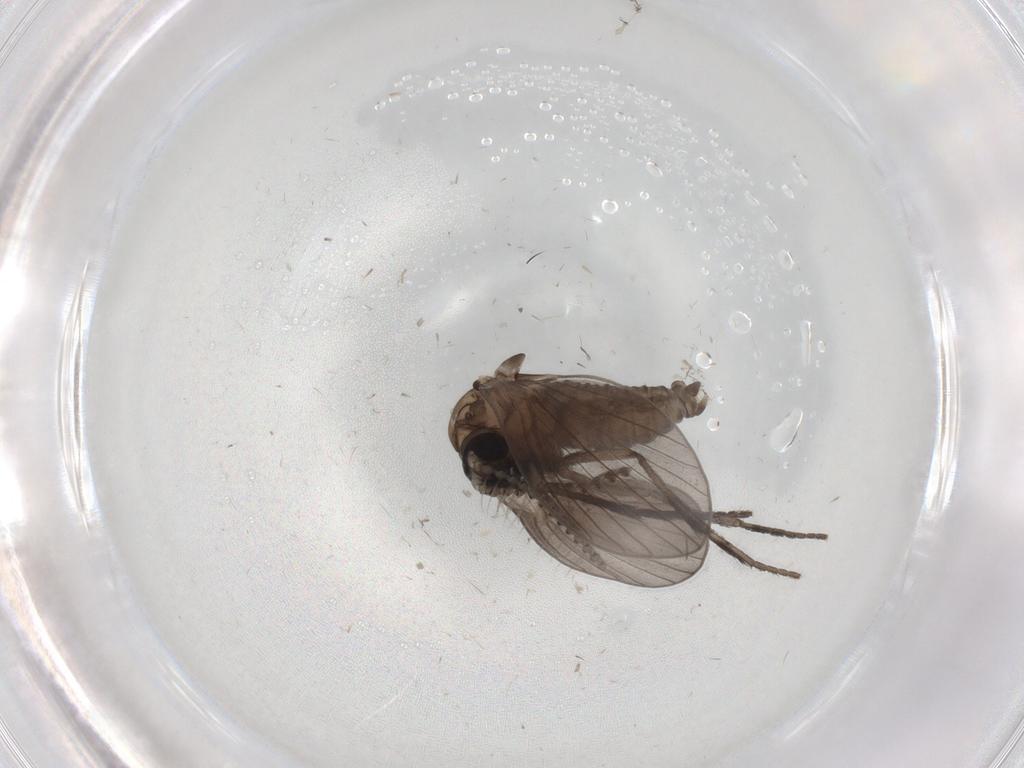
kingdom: Animalia
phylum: Arthropoda
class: Insecta
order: Diptera
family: Psychodidae
